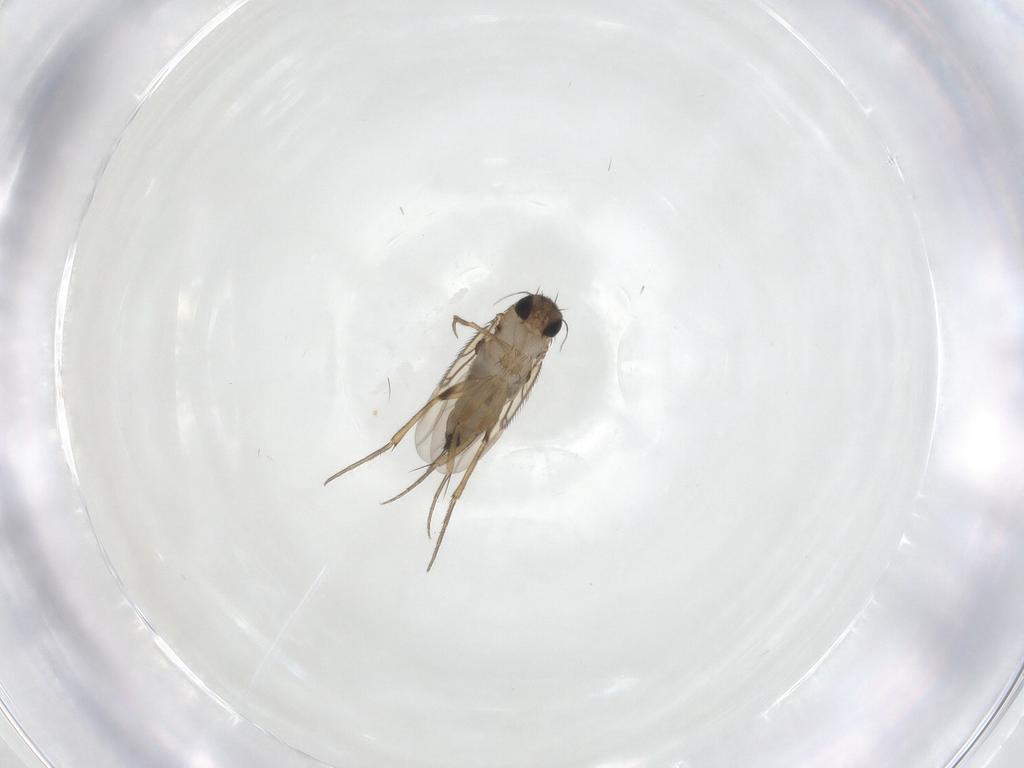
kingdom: Animalia
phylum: Arthropoda
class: Insecta
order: Diptera
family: Phoridae
